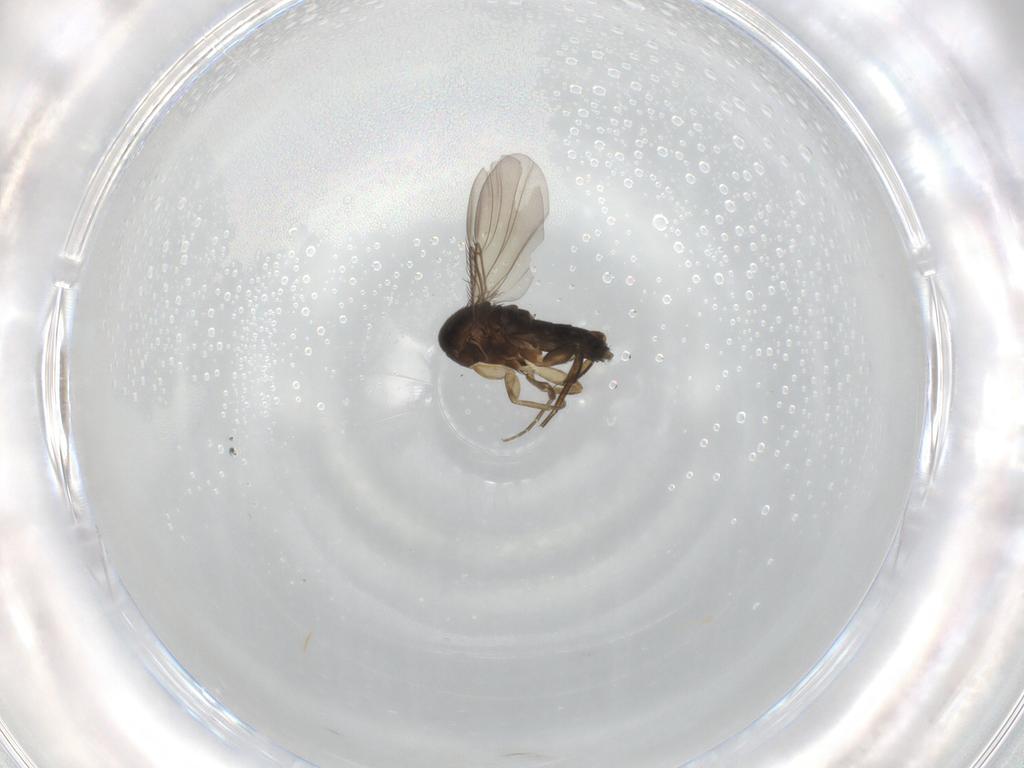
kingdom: Animalia
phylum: Arthropoda
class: Insecta
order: Diptera
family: Phoridae
